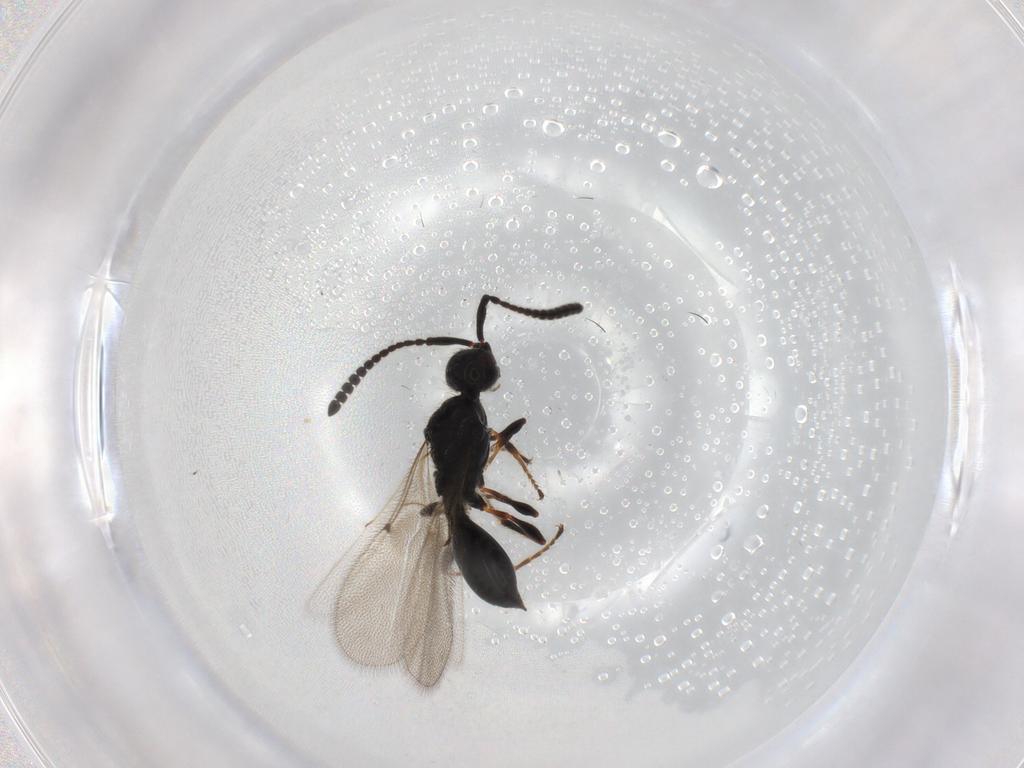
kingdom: Animalia
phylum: Arthropoda
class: Insecta
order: Hymenoptera
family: Diapriidae
